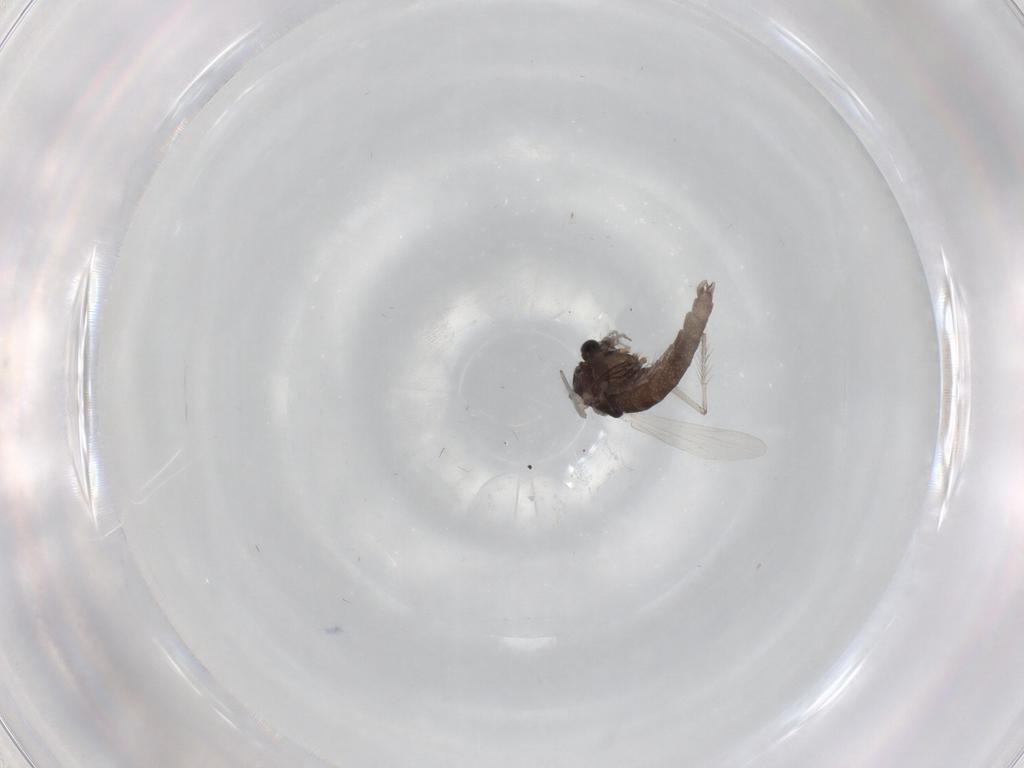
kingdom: Animalia
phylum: Arthropoda
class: Insecta
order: Diptera
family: Chironomidae
